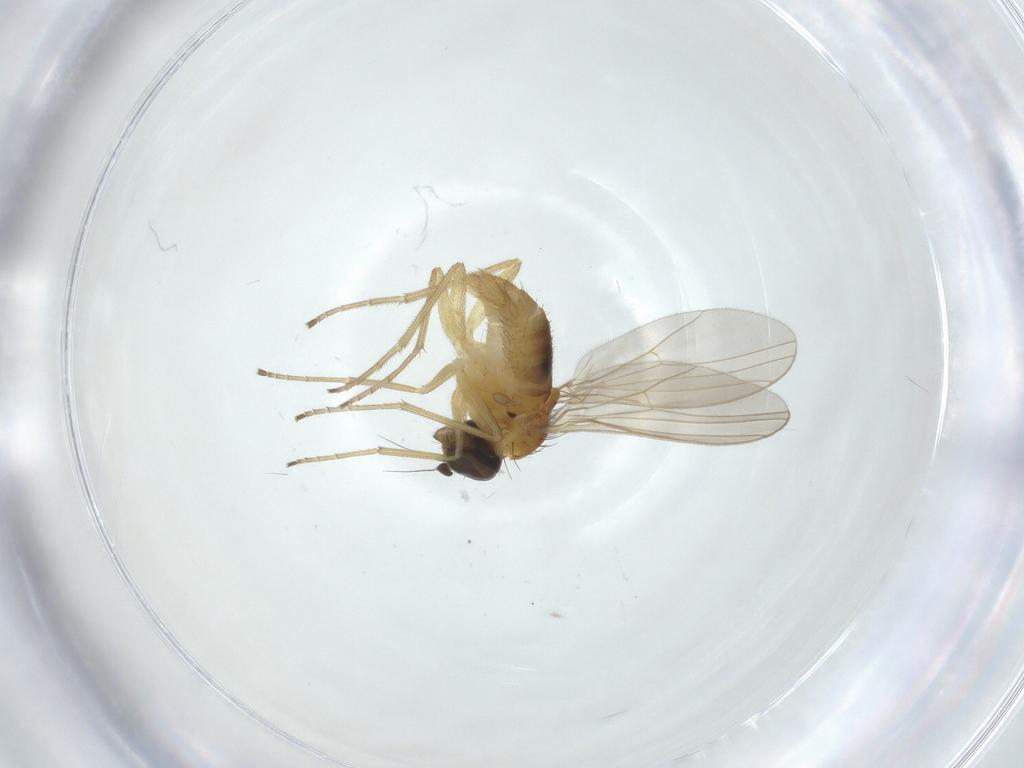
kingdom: Animalia
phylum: Arthropoda
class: Insecta
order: Diptera
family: Dolichopodidae
